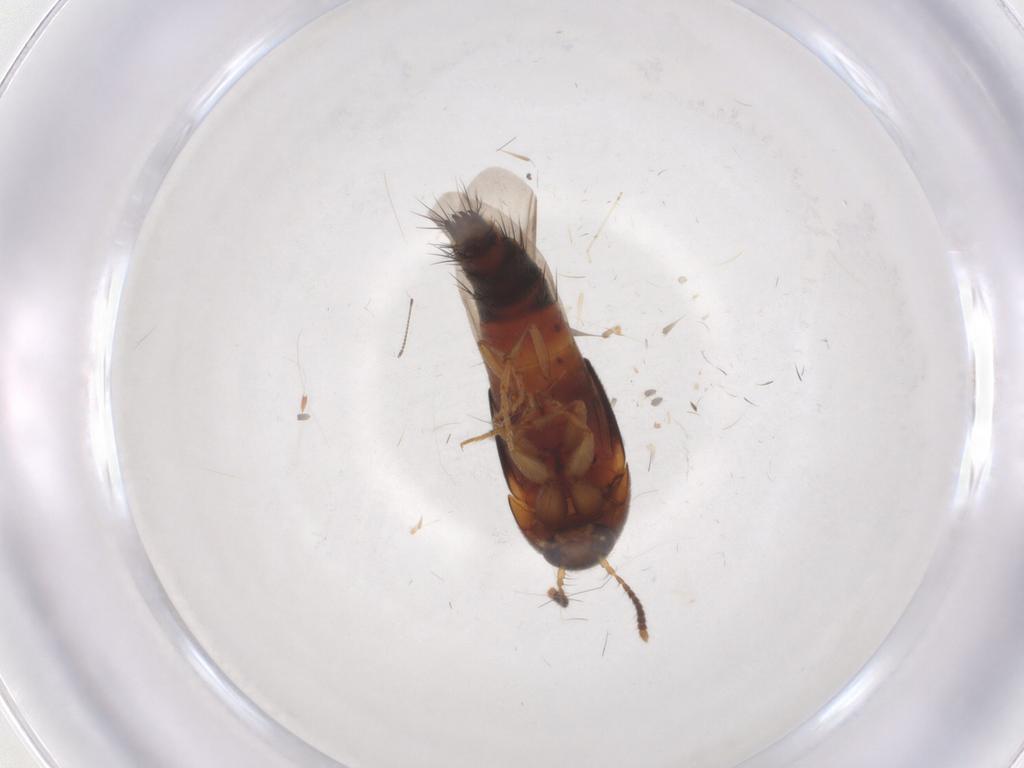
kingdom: Animalia
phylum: Arthropoda
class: Insecta
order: Coleoptera
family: Staphylinidae
